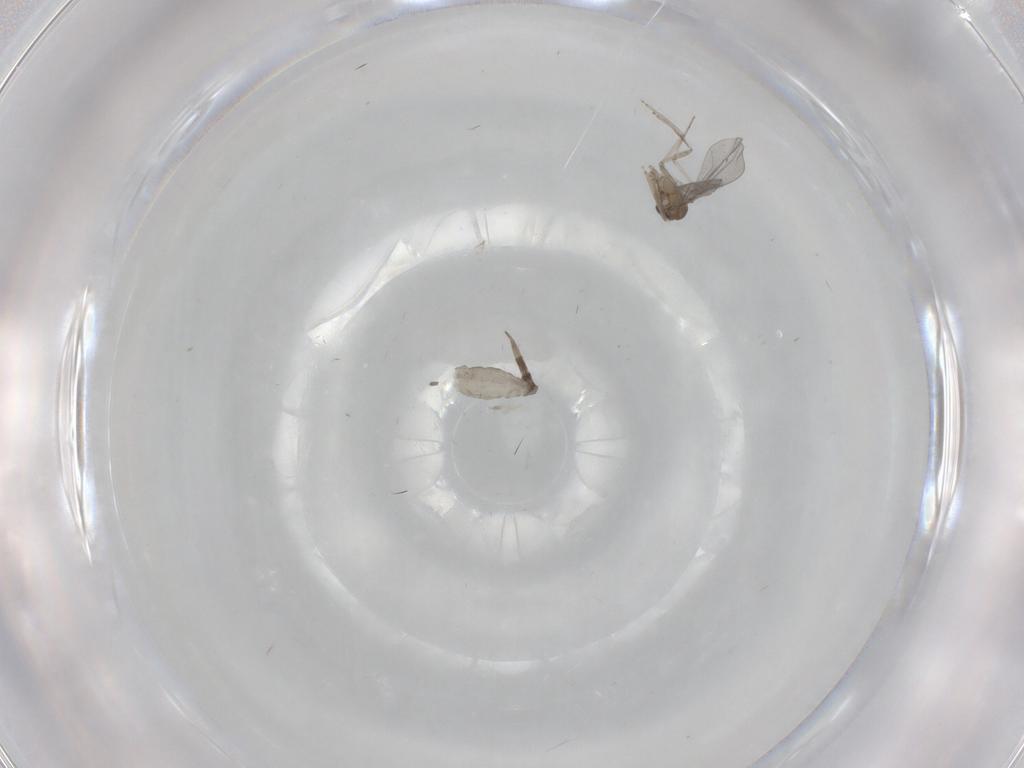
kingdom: Animalia
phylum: Arthropoda
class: Insecta
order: Diptera
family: Cecidomyiidae
